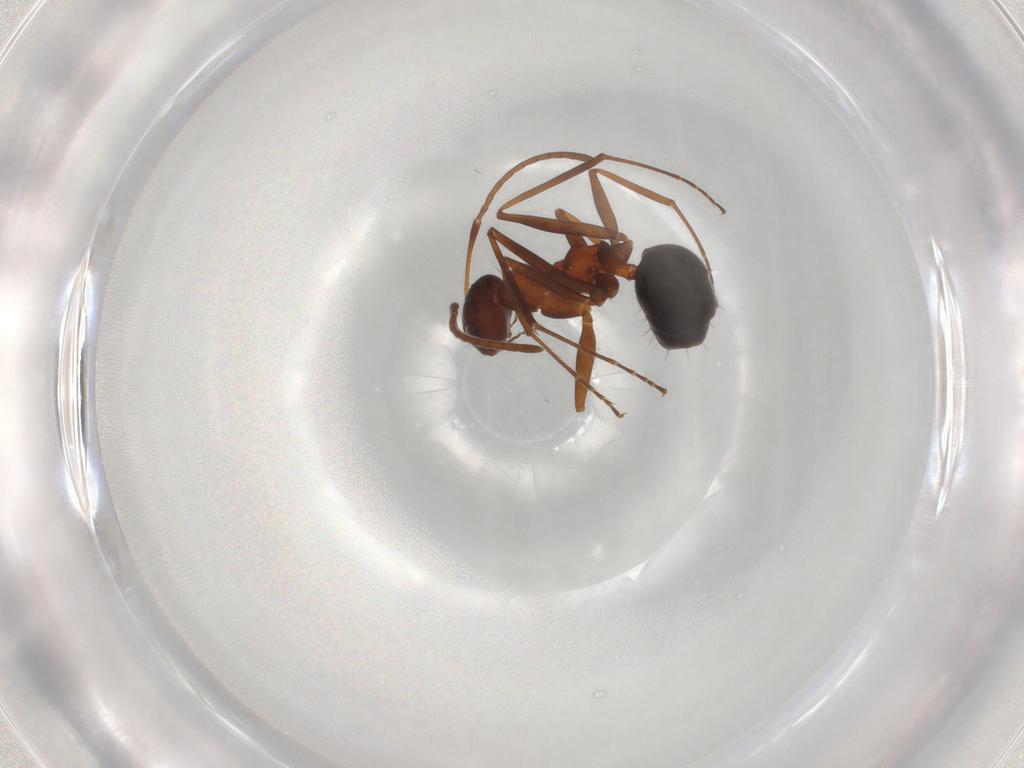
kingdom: Animalia
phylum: Arthropoda
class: Insecta
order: Hymenoptera
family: Formicidae
